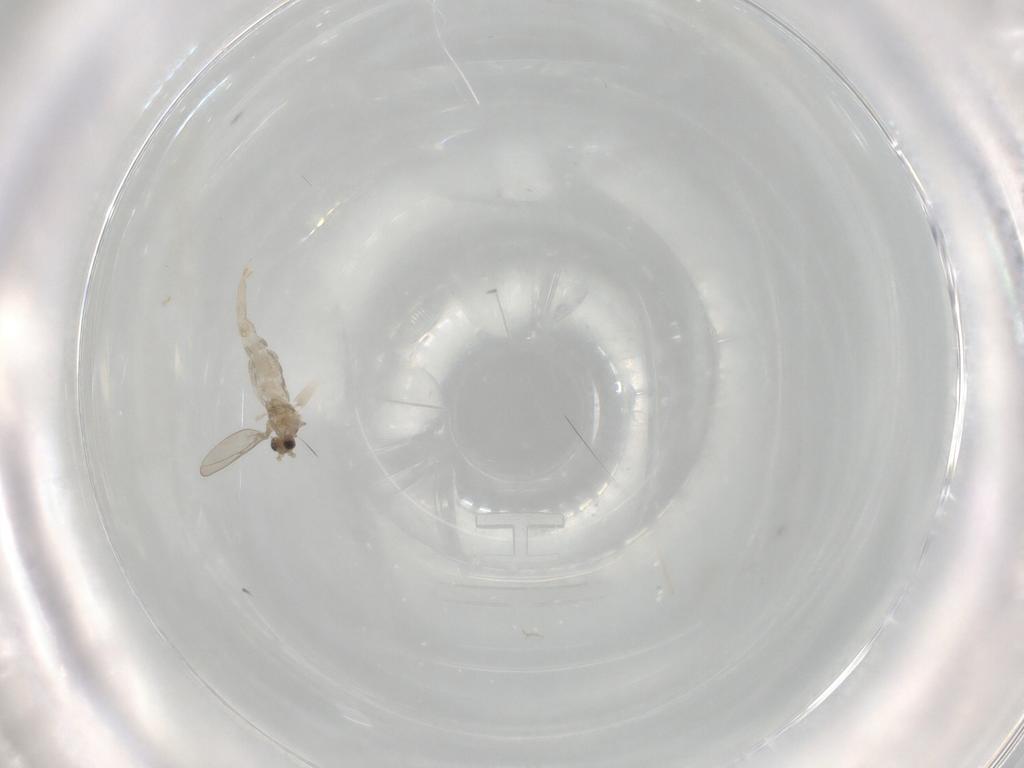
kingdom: Animalia
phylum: Arthropoda
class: Insecta
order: Diptera
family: Cecidomyiidae
